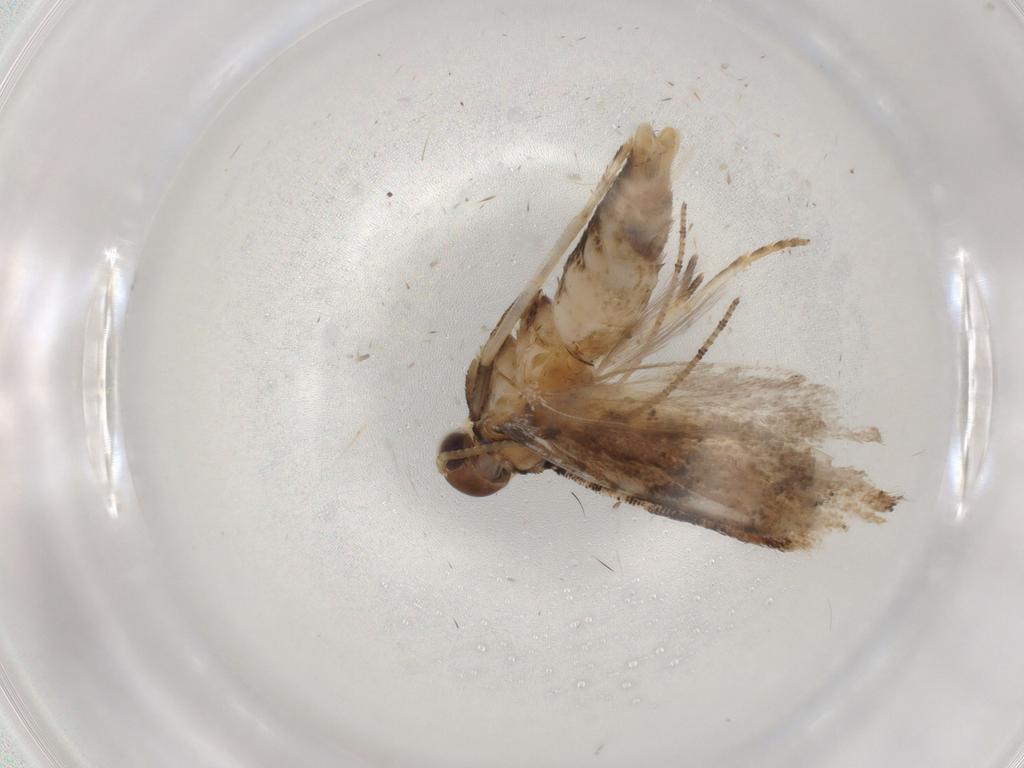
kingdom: Animalia
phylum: Arthropoda
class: Insecta
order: Lepidoptera
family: Gelechiidae
